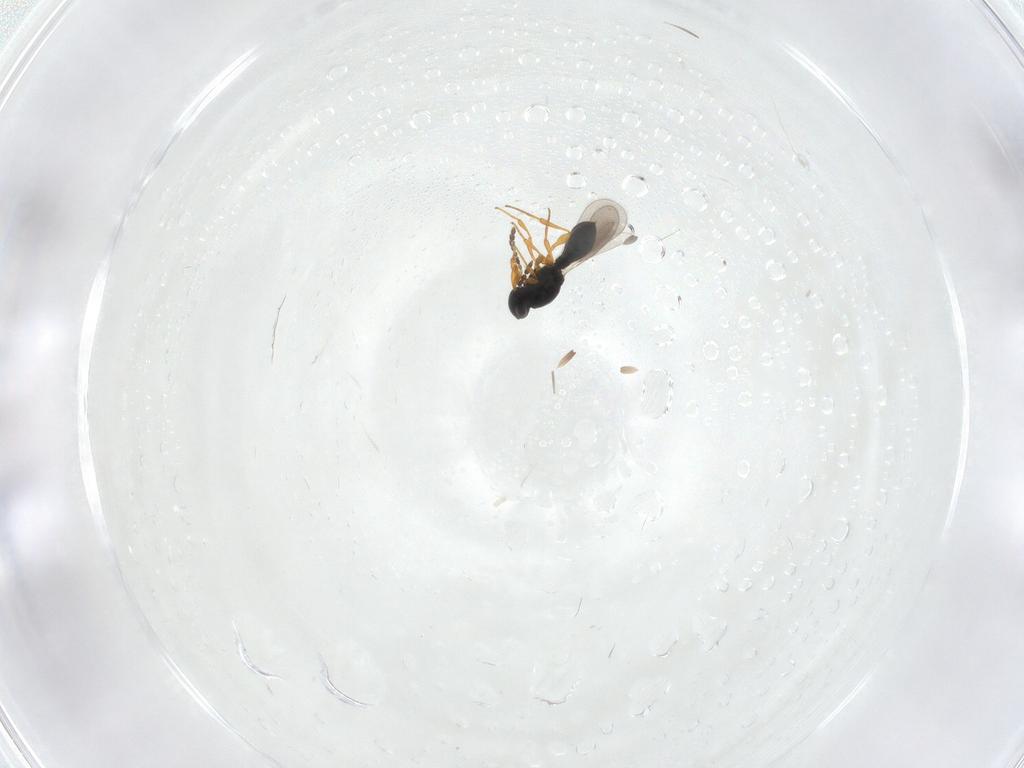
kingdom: Animalia
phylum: Arthropoda
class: Insecta
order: Hymenoptera
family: Platygastridae
